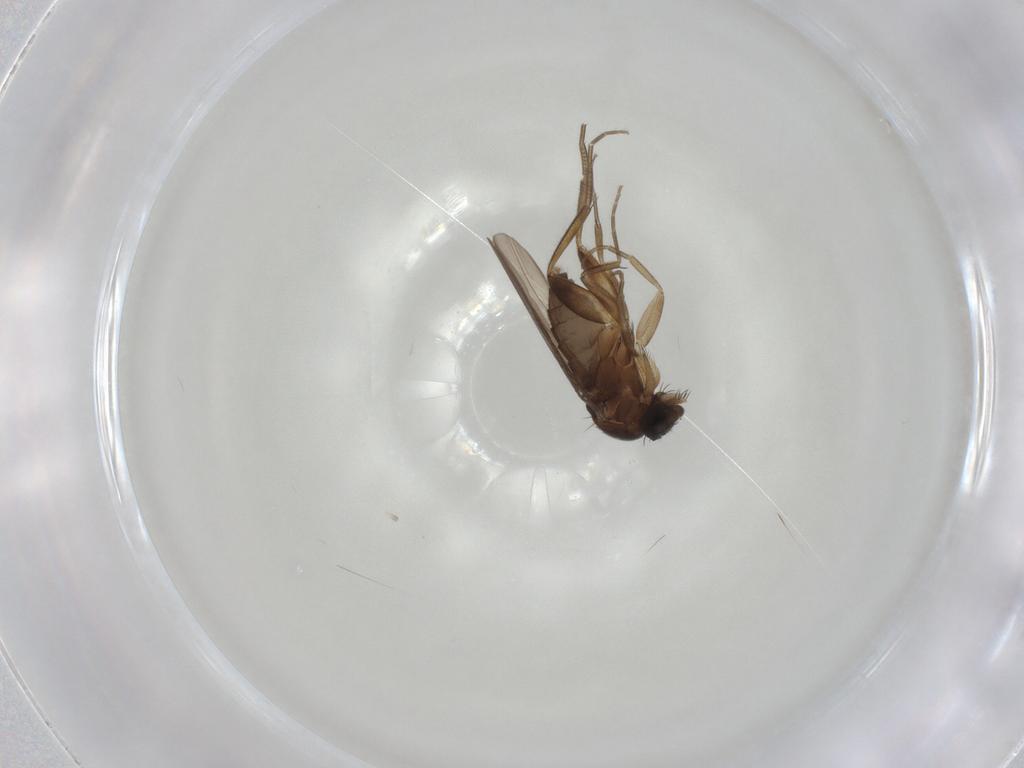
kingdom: Animalia
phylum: Arthropoda
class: Insecta
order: Diptera
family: Phoridae
